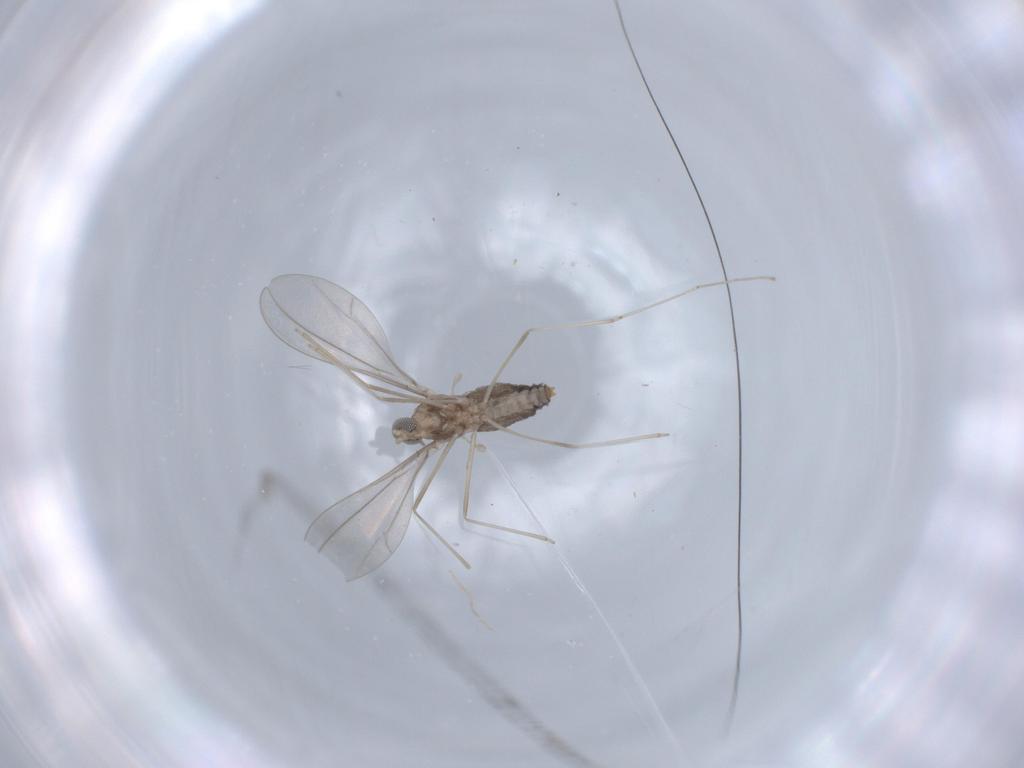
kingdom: Animalia
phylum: Arthropoda
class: Insecta
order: Diptera
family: Cecidomyiidae
